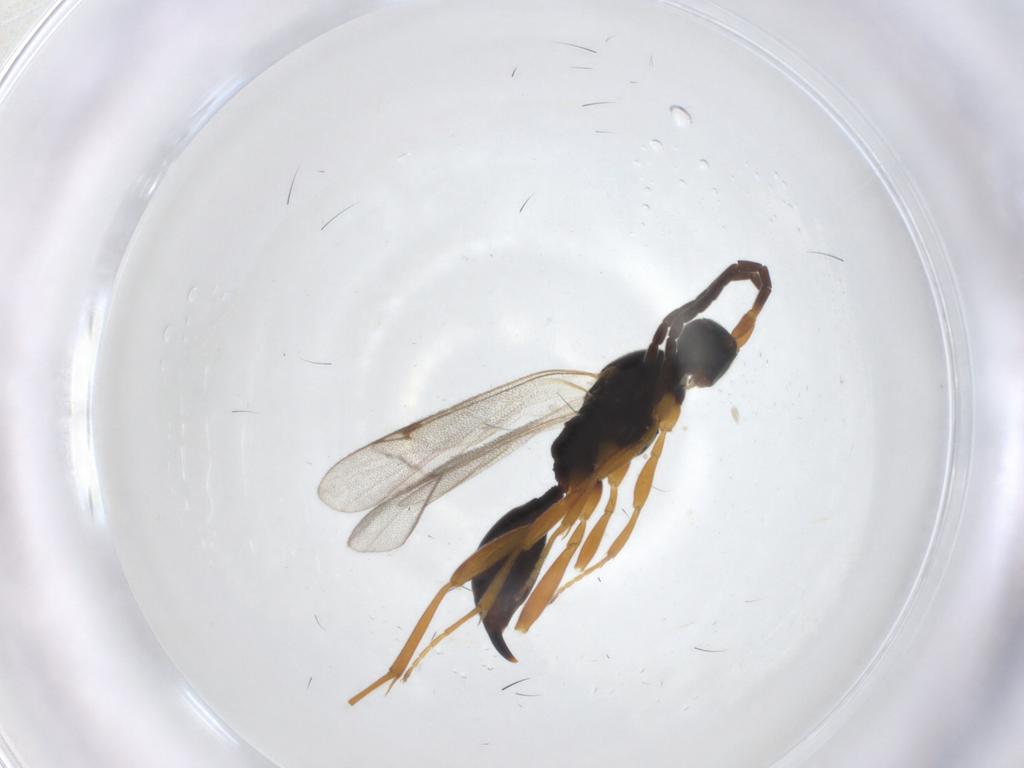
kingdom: Animalia
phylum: Arthropoda
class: Insecta
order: Hymenoptera
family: Proctotrupidae
